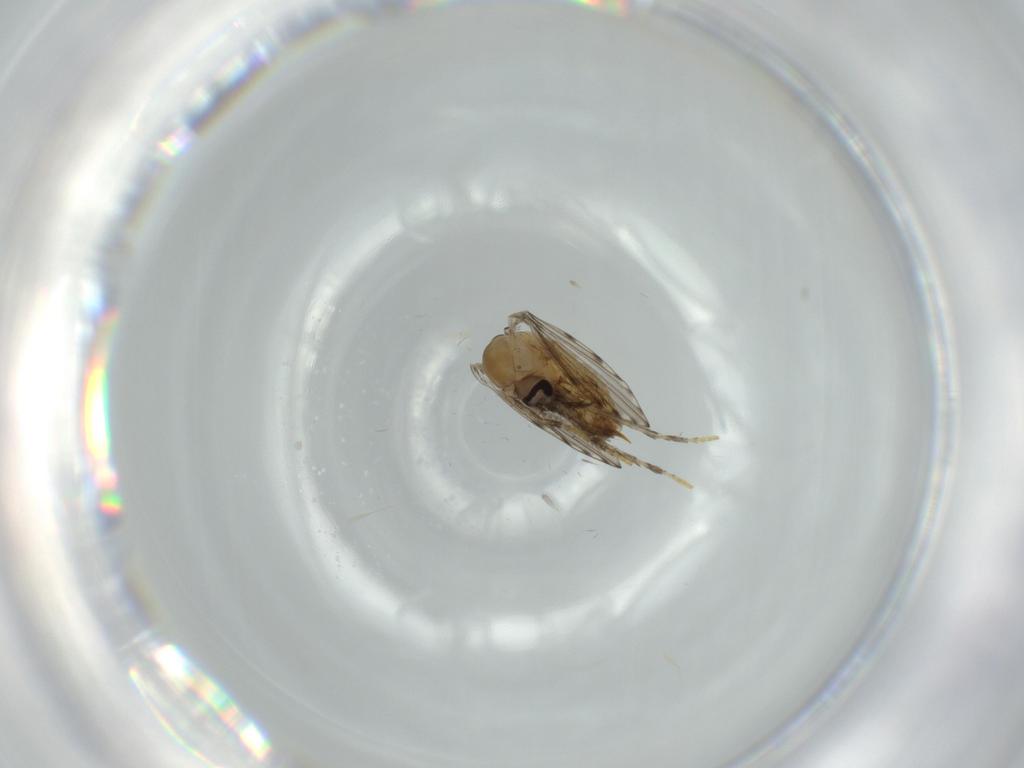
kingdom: Animalia
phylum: Arthropoda
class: Insecta
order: Diptera
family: Psychodidae
